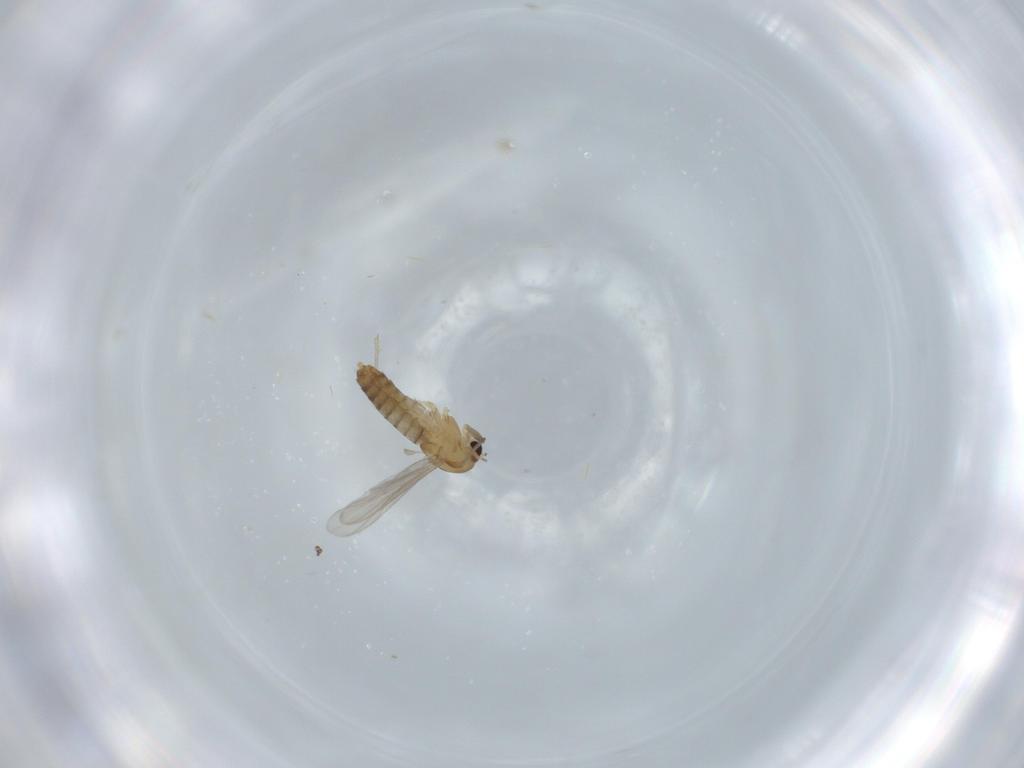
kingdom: Animalia
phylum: Arthropoda
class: Insecta
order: Diptera
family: Chironomidae
